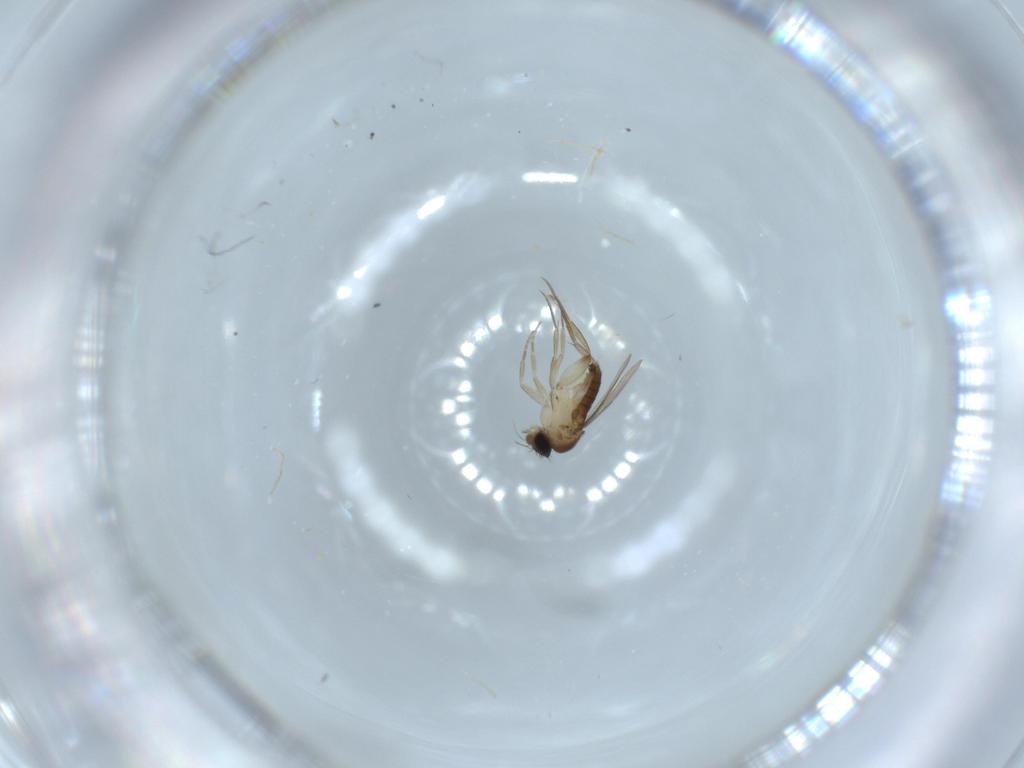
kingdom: Animalia
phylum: Arthropoda
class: Insecta
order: Diptera
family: Phoridae
